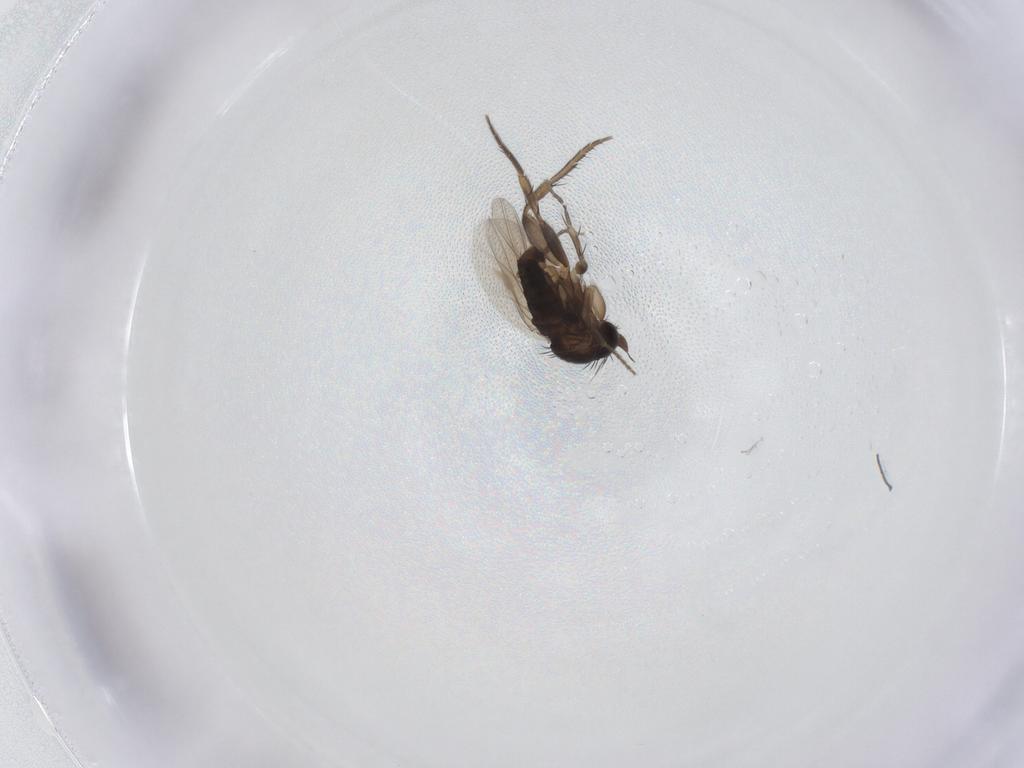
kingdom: Animalia
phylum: Arthropoda
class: Insecta
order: Diptera
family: Phoridae
